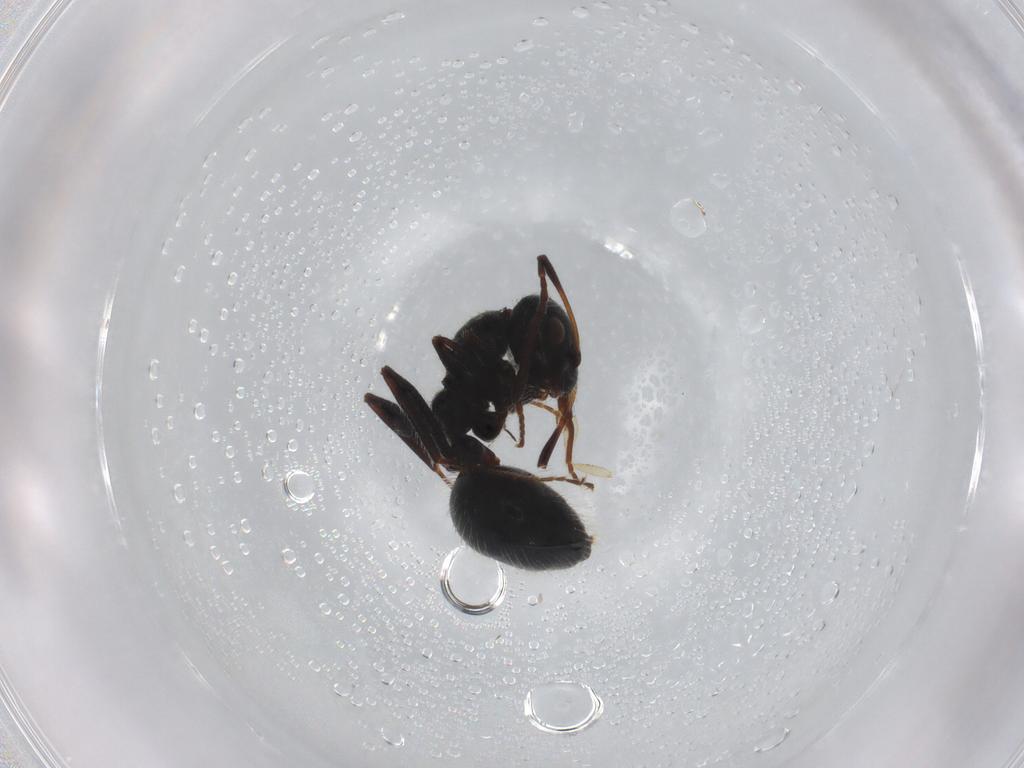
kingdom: Animalia
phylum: Arthropoda
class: Insecta
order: Hymenoptera
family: Formicidae
